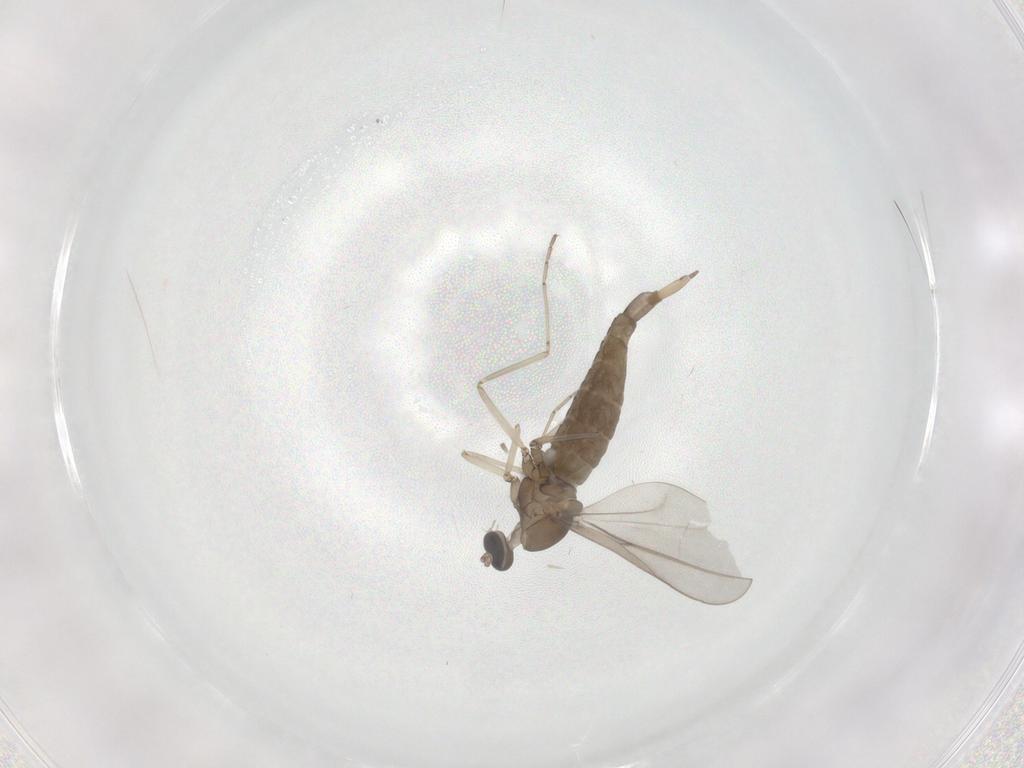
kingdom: Animalia
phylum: Arthropoda
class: Insecta
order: Diptera
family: Cecidomyiidae
